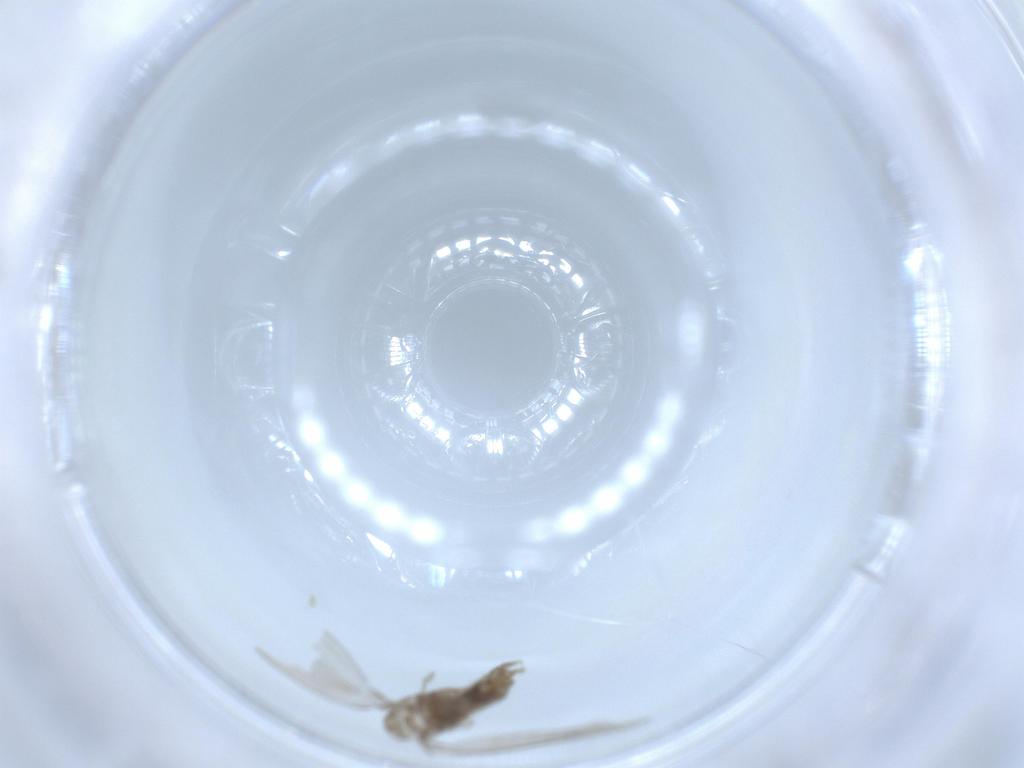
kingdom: Animalia
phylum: Arthropoda
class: Insecta
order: Diptera
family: Psychodidae
